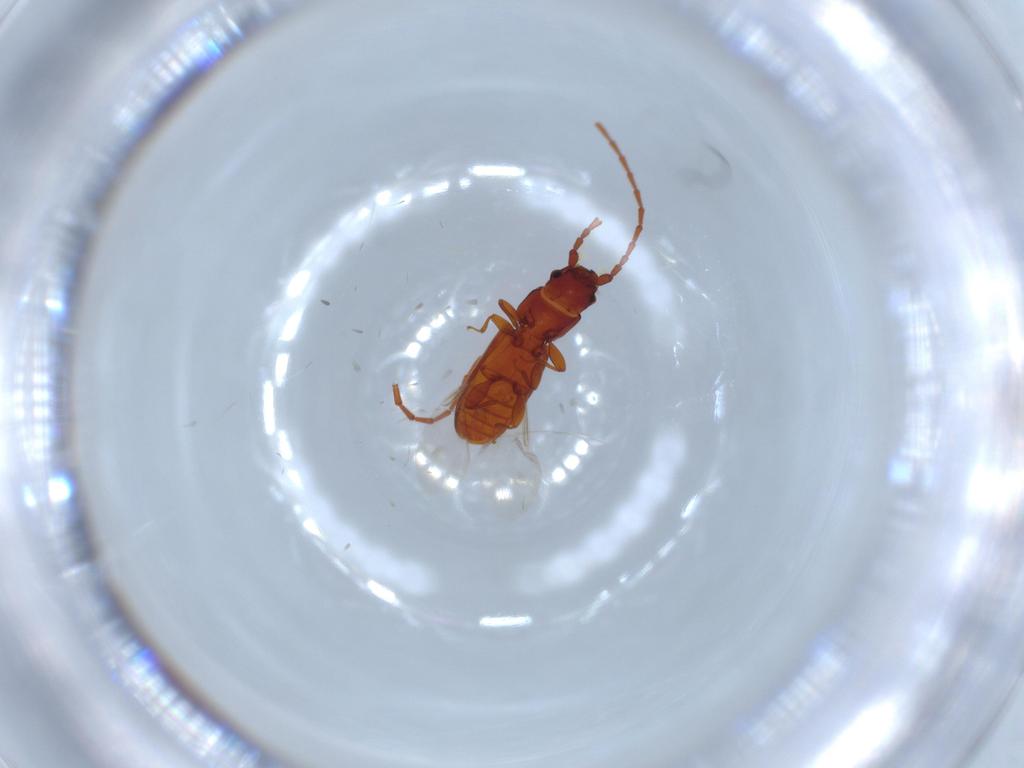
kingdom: Animalia
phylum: Arthropoda
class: Insecta
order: Coleoptera
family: Laemophloeidae
